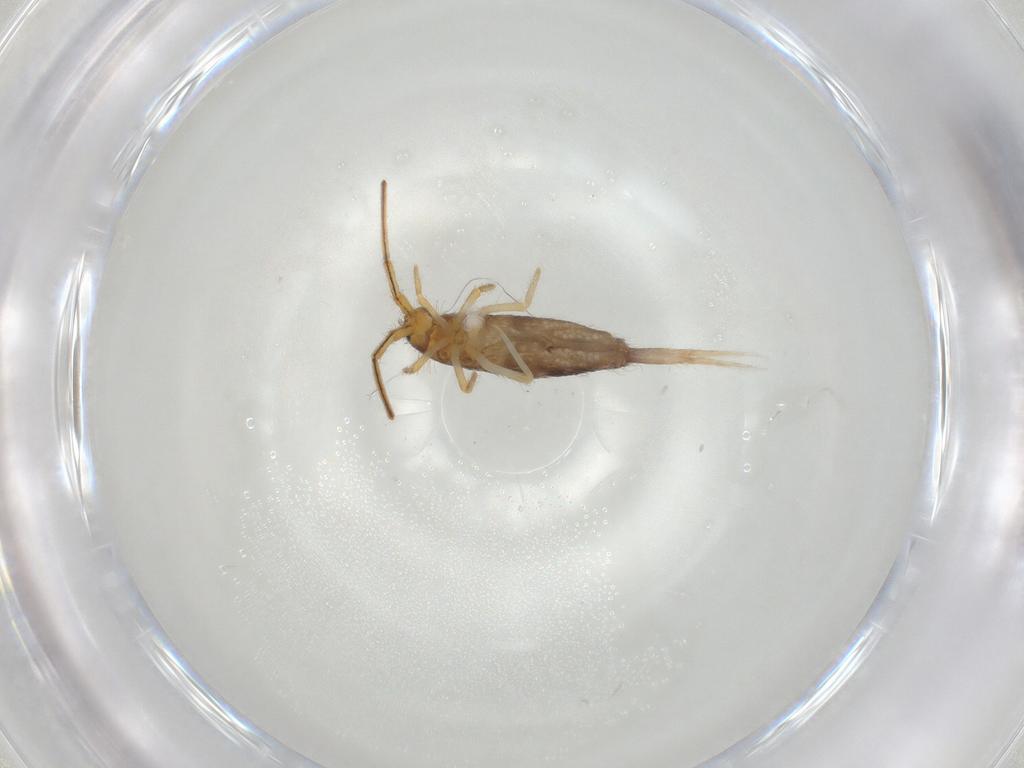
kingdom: Animalia
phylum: Arthropoda
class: Collembola
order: Entomobryomorpha
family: Entomobryidae
